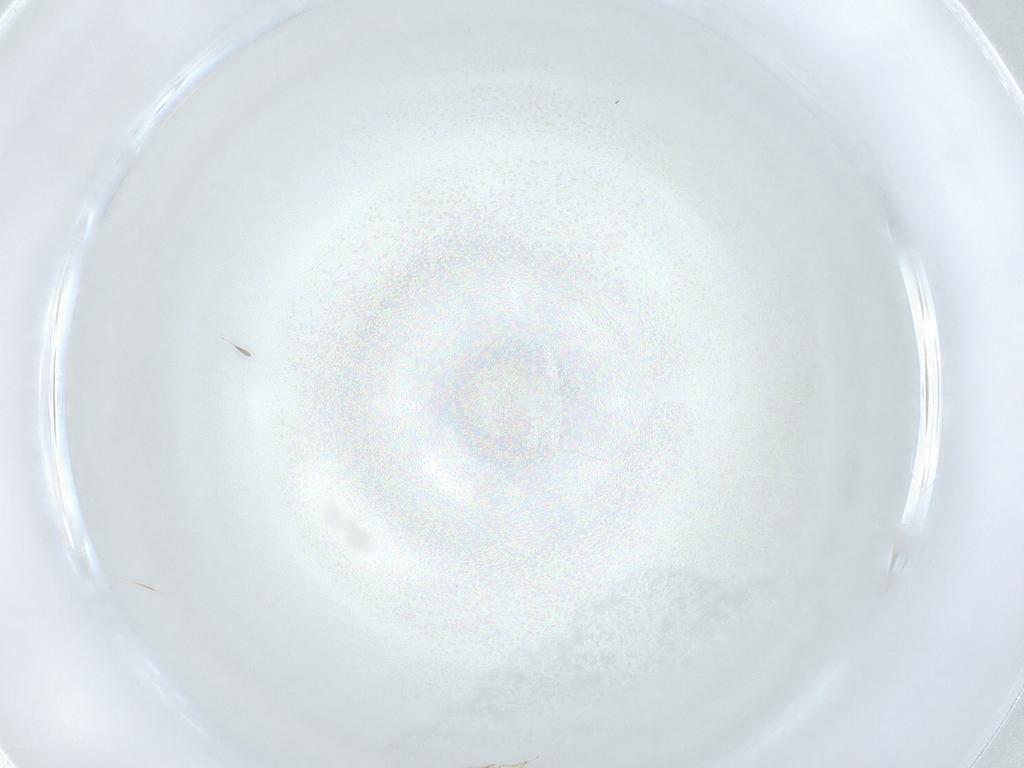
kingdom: Animalia
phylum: Arthropoda
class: Insecta
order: Hymenoptera
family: Mymaridae
